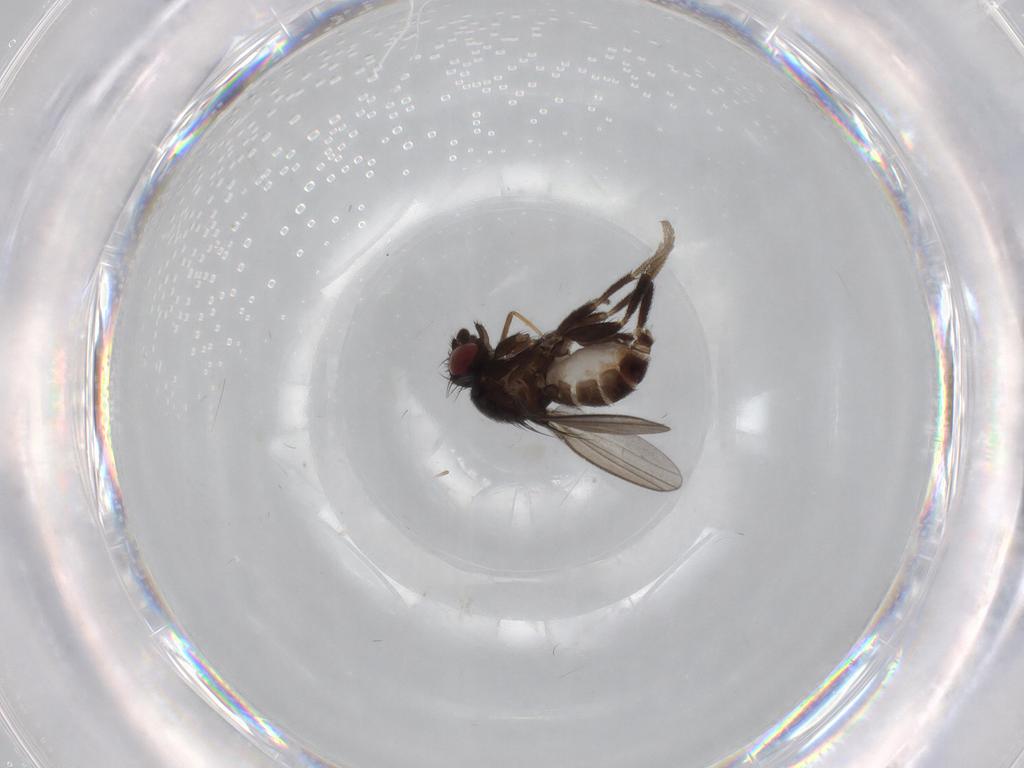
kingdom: Animalia
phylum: Arthropoda
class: Insecta
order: Diptera
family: Milichiidae
